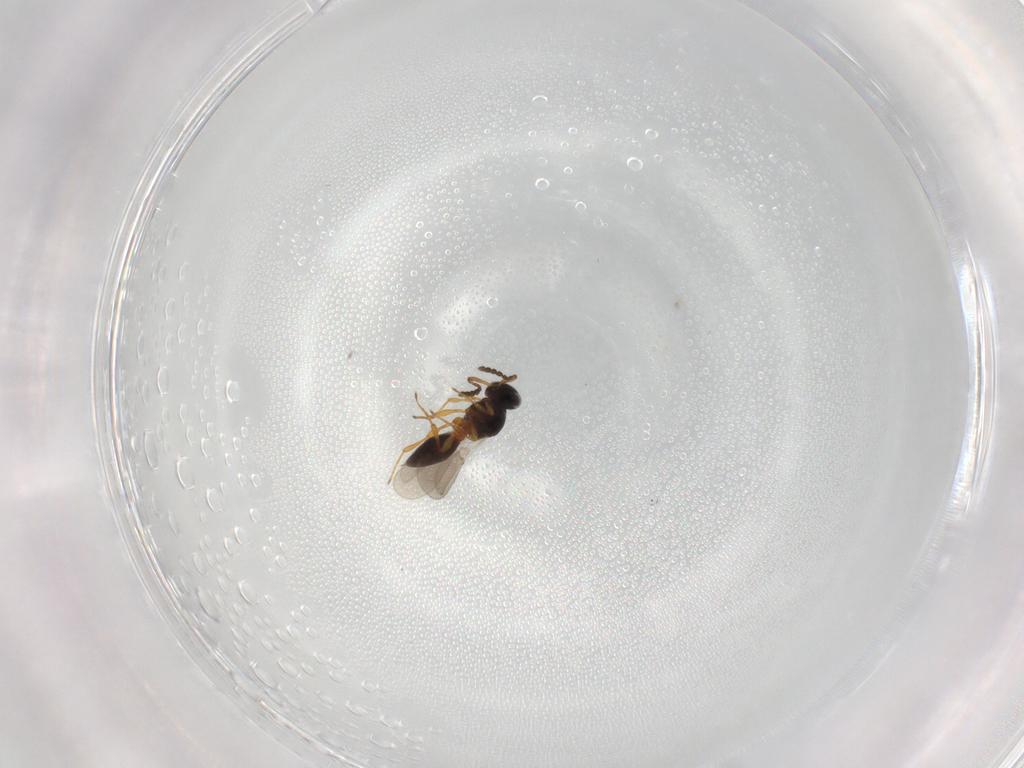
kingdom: Animalia
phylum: Arthropoda
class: Insecta
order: Hymenoptera
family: Platygastridae
